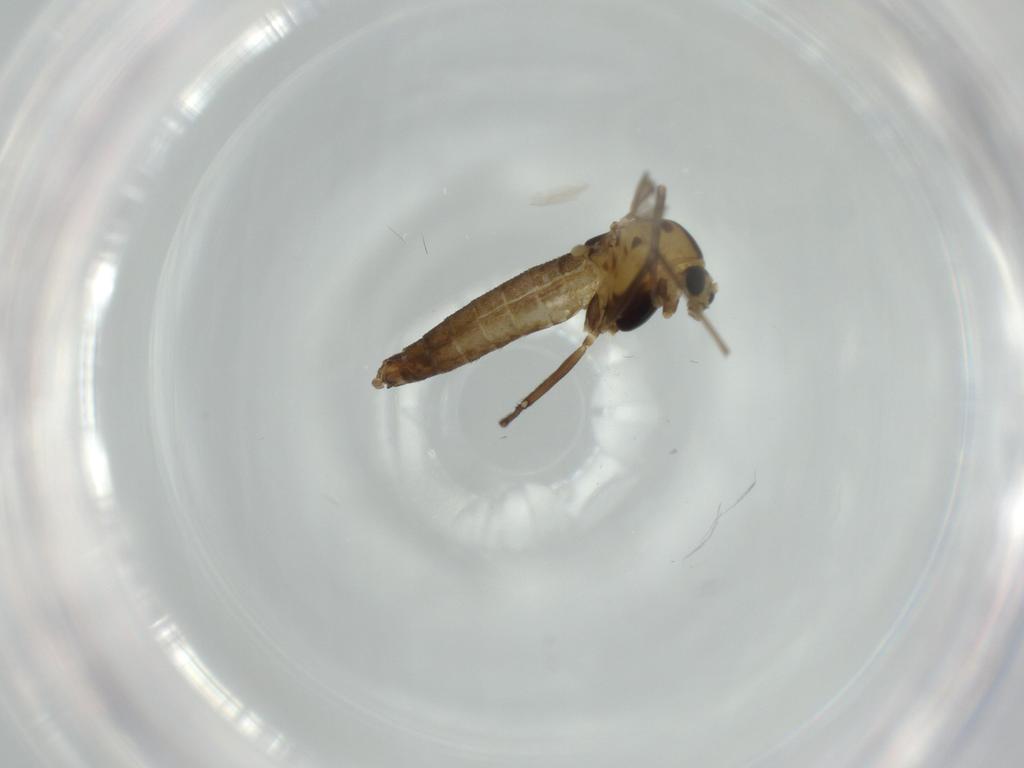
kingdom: Animalia
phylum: Arthropoda
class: Insecta
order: Diptera
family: Chloropidae
